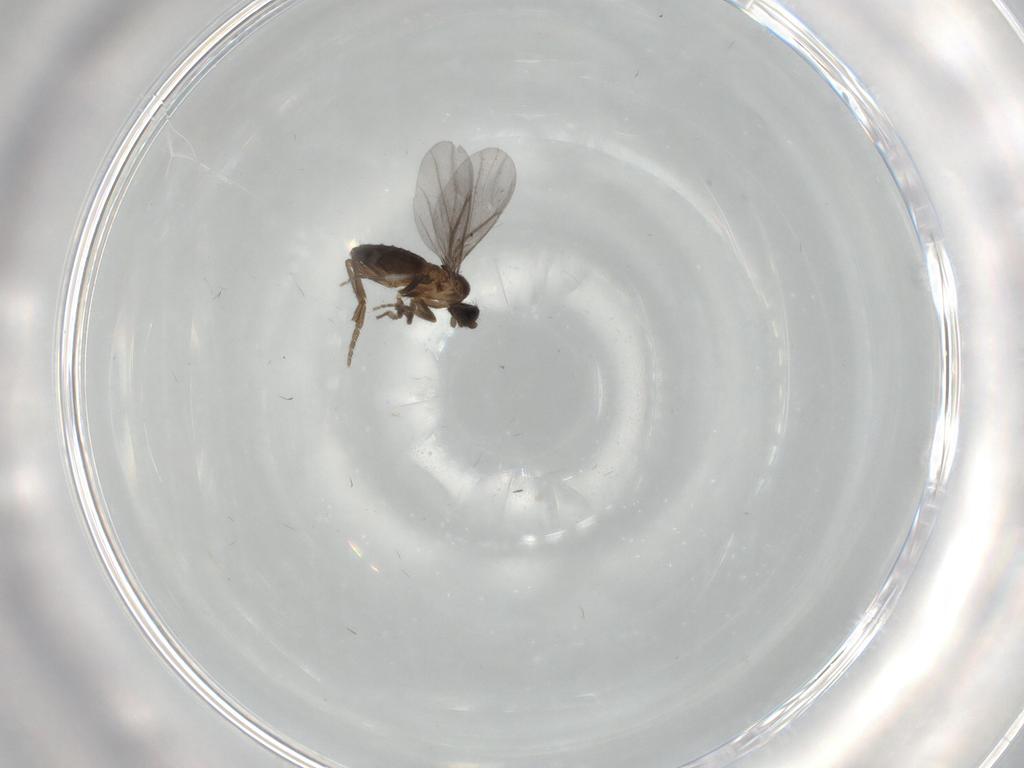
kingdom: Animalia
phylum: Arthropoda
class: Insecta
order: Diptera
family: Phoridae
